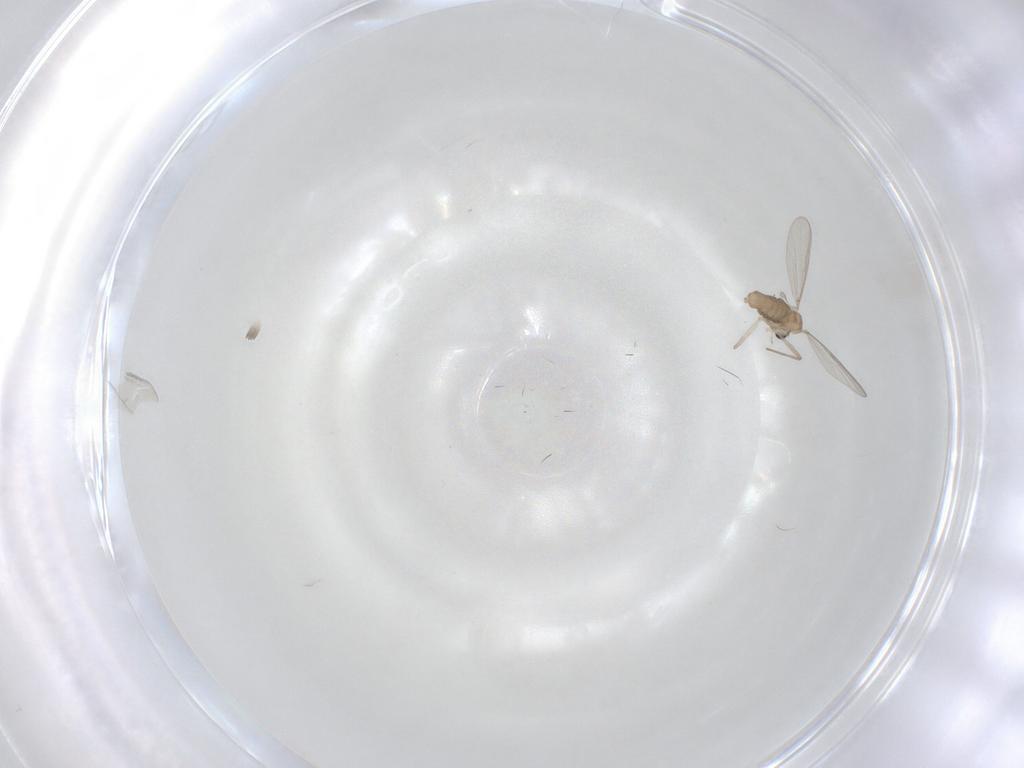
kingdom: Animalia
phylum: Arthropoda
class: Insecta
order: Diptera
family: Chironomidae
